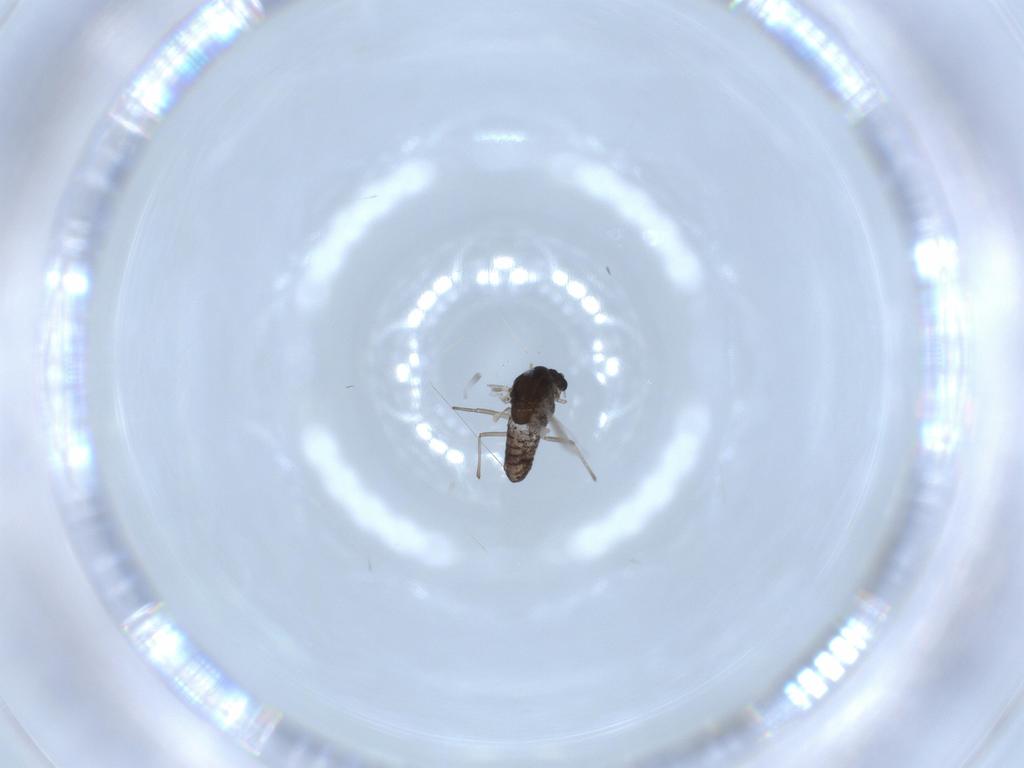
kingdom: Animalia
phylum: Arthropoda
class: Insecta
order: Diptera
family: Chironomidae
